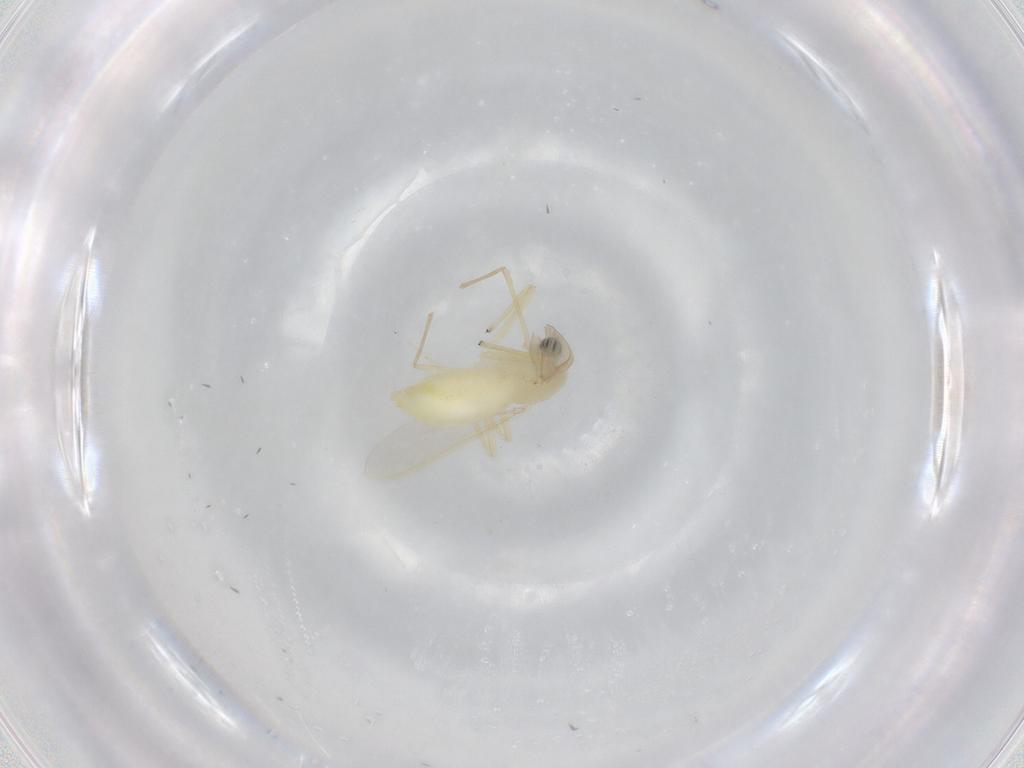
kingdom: Animalia
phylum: Arthropoda
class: Insecta
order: Diptera
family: Chironomidae
